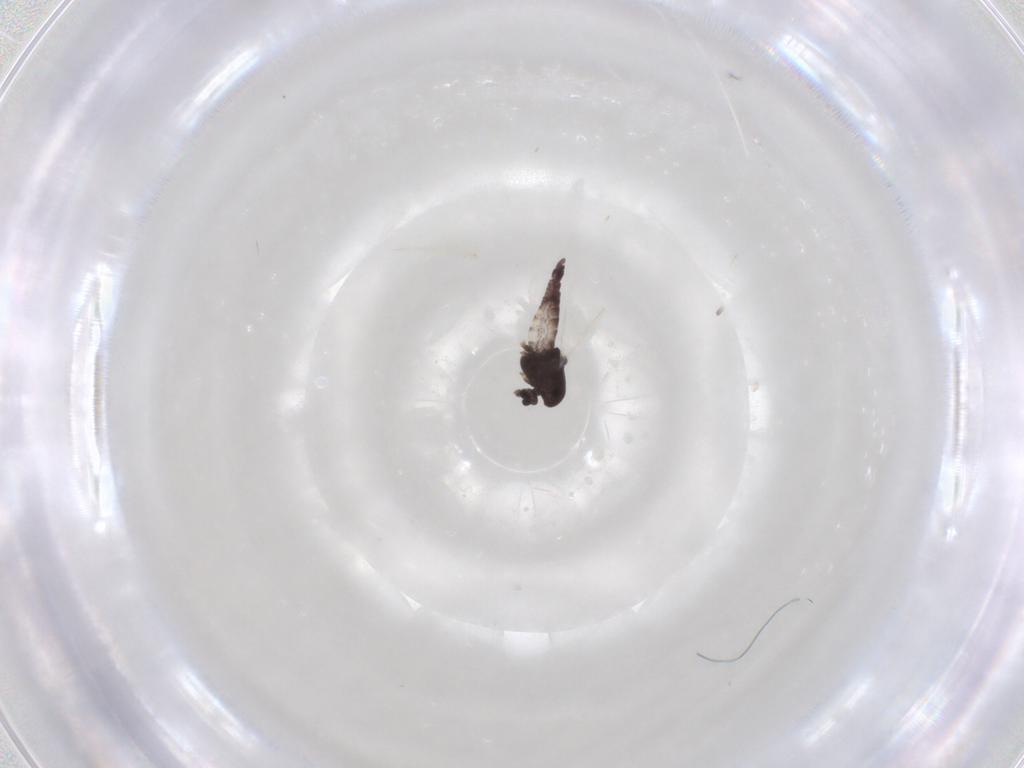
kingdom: Animalia
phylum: Arthropoda
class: Insecta
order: Diptera
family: Chironomidae
